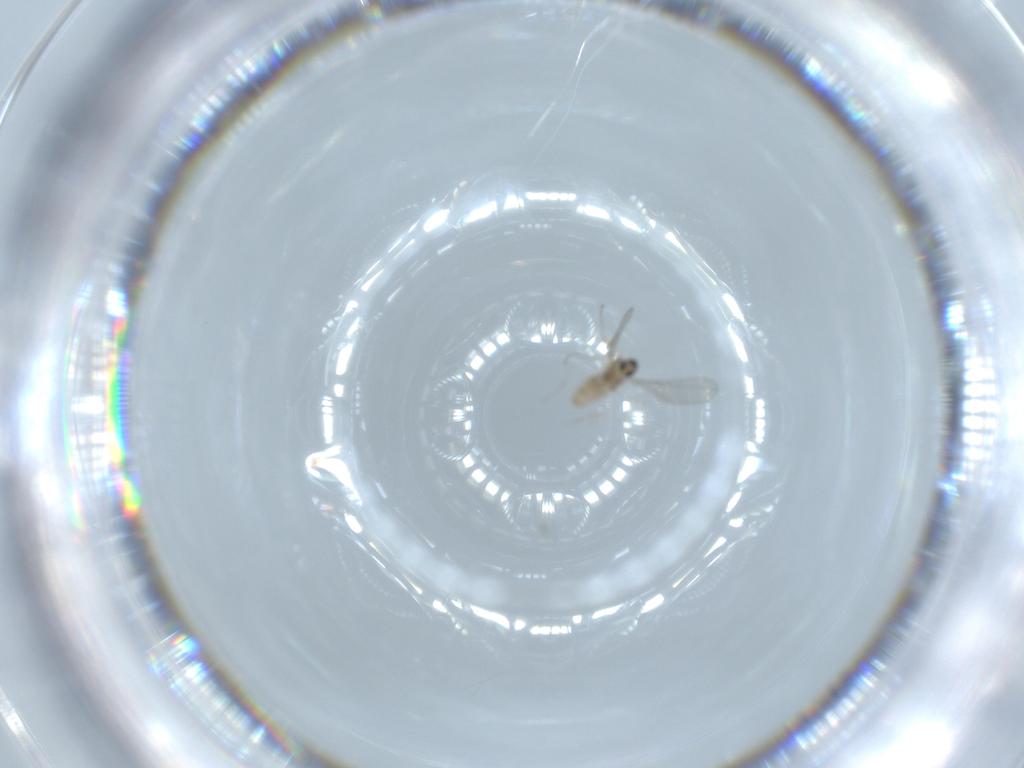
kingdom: Animalia
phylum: Arthropoda
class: Insecta
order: Diptera
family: Cecidomyiidae
